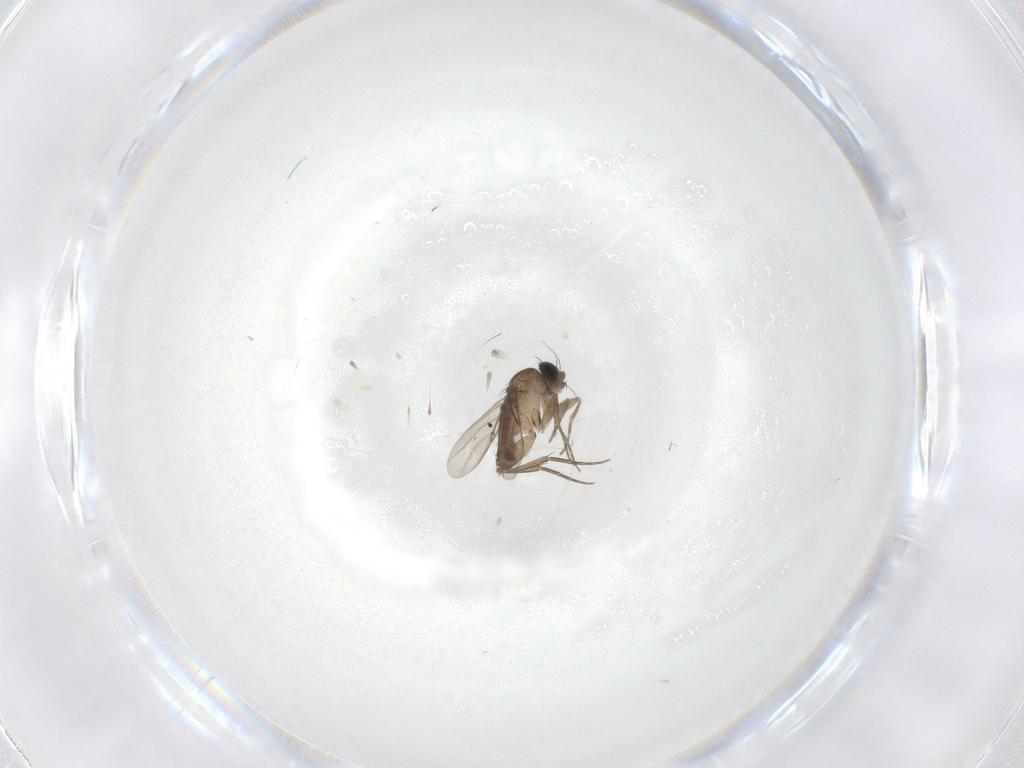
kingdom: Animalia
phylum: Arthropoda
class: Insecta
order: Diptera
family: Phoridae
